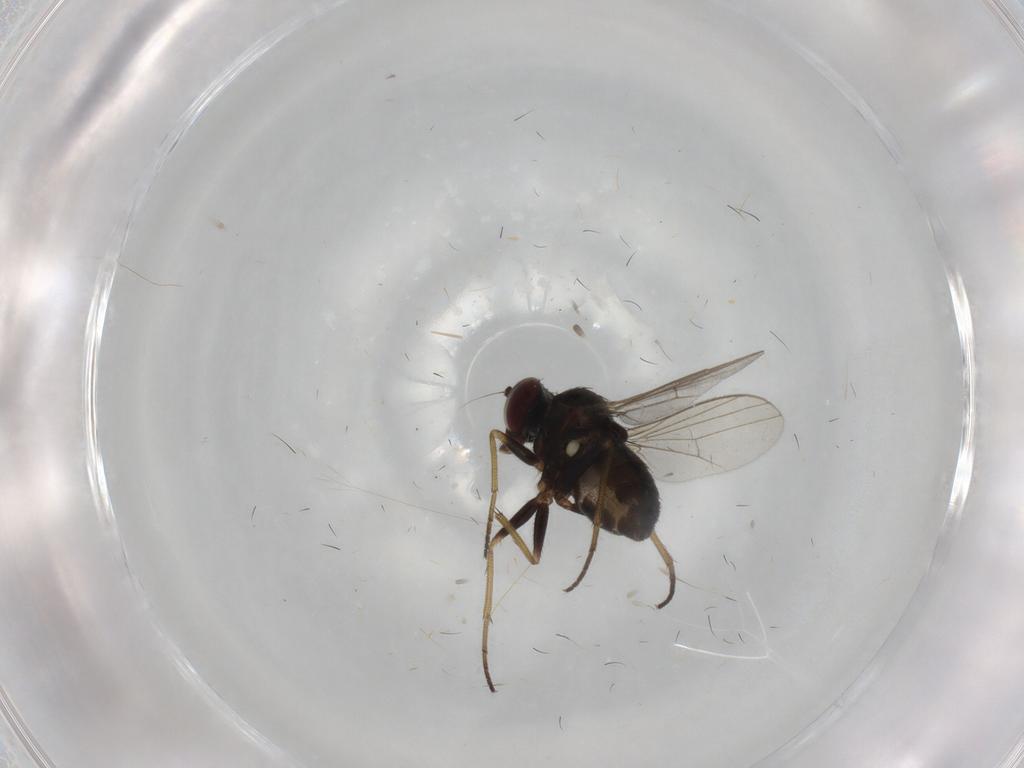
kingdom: Animalia
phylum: Arthropoda
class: Insecta
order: Diptera
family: Dolichopodidae
